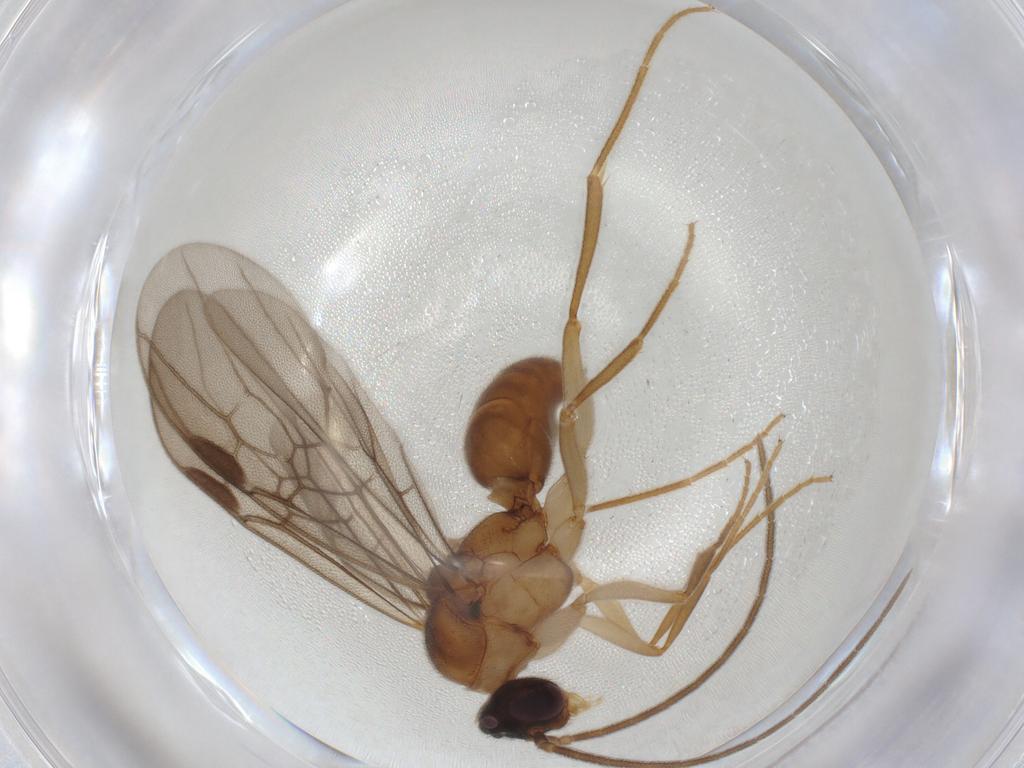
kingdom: Animalia
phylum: Arthropoda
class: Insecta
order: Hymenoptera
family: Formicidae
